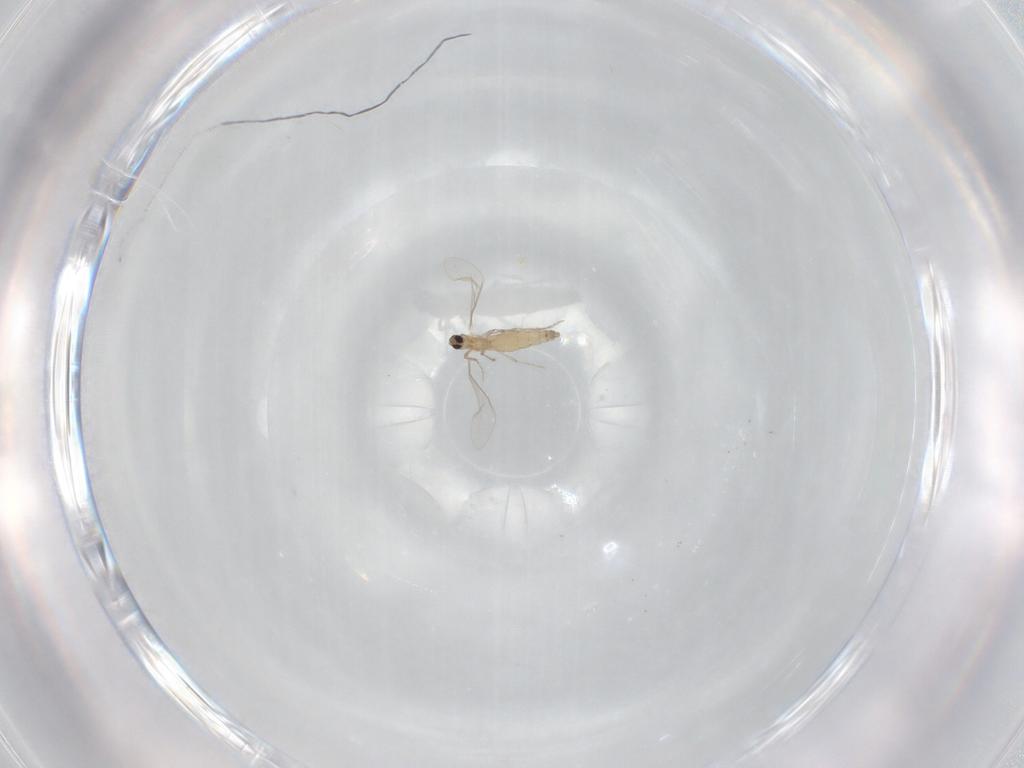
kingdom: Animalia
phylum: Arthropoda
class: Insecta
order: Diptera
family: Cecidomyiidae
